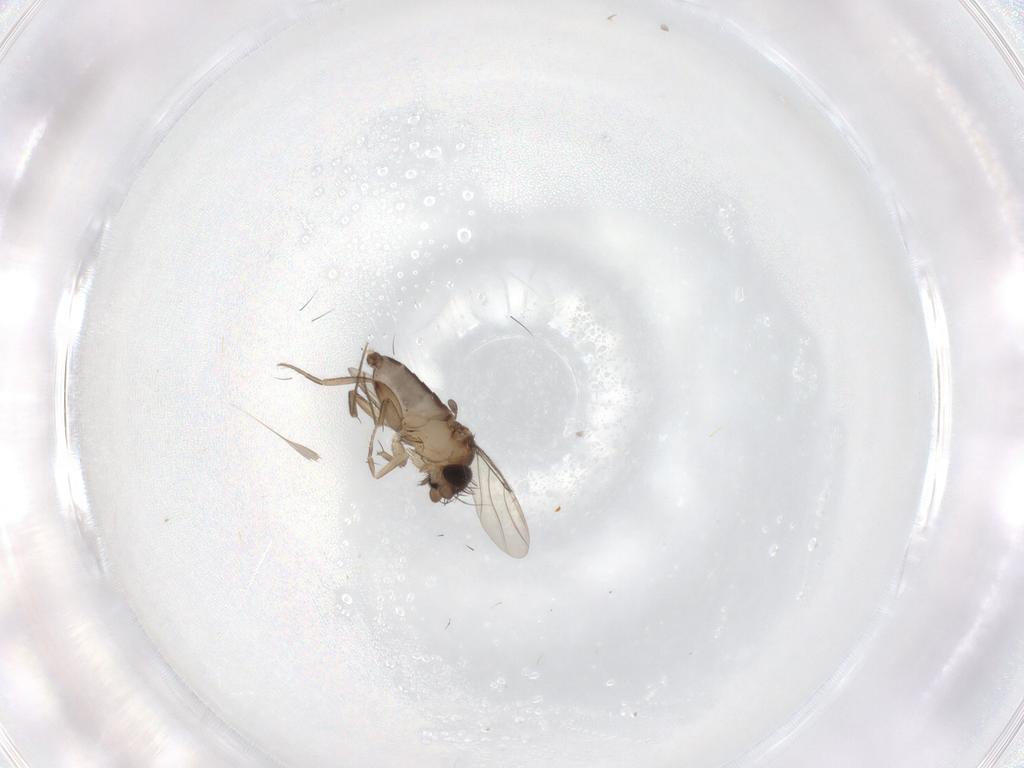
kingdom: Animalia
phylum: Arthropoda
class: Insecta
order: Diptera
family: Phoridae
